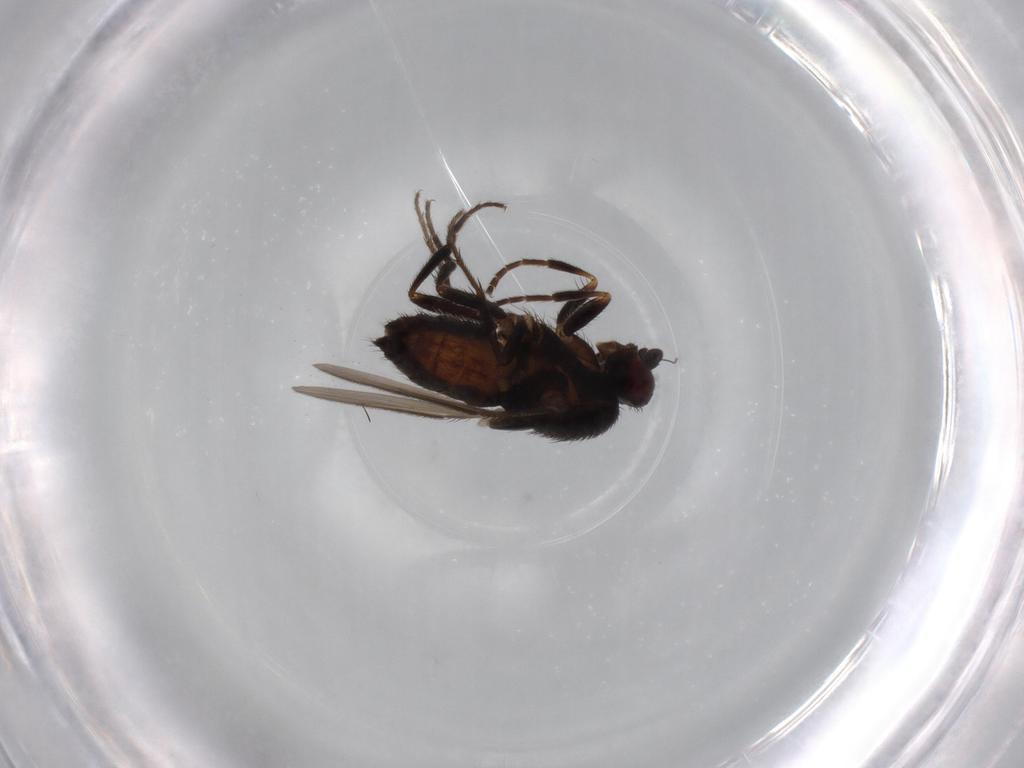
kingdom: Animalia
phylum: Arthropoda
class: Insecta
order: Diptera
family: Sphaeroceridae
